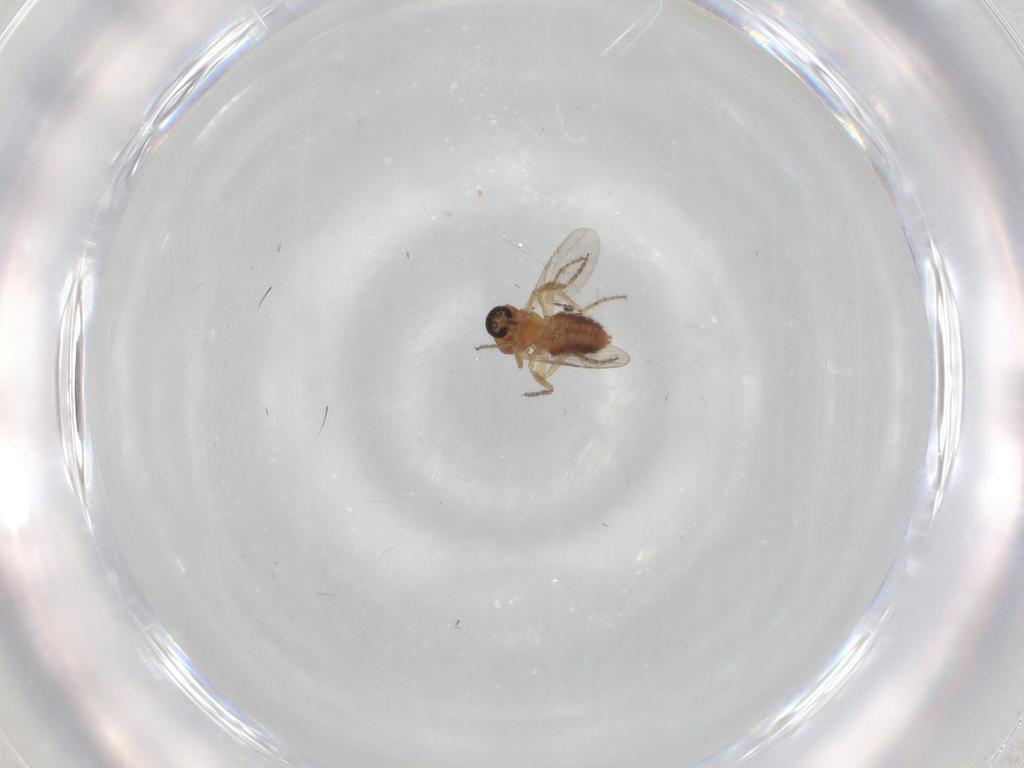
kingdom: Animalia
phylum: Arthropoda
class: Insecta
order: Diptera
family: Ceratopogonidae
